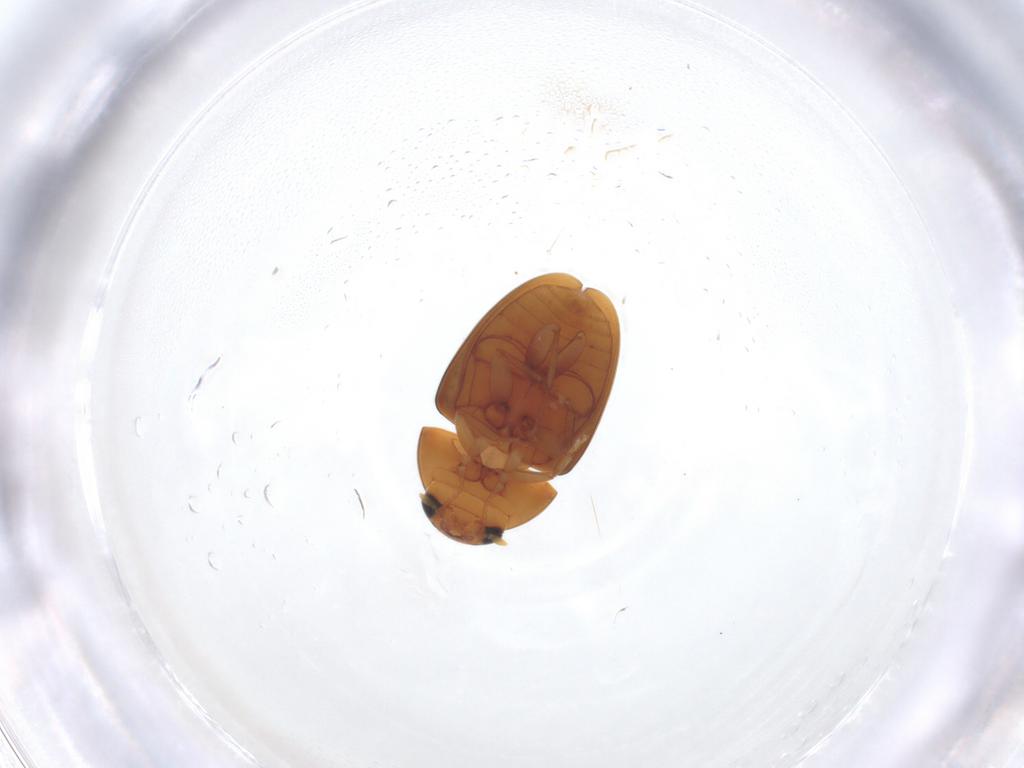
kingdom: Animalia
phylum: Arthropoda
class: Insecta
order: Coleoptera
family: Phalacridae
